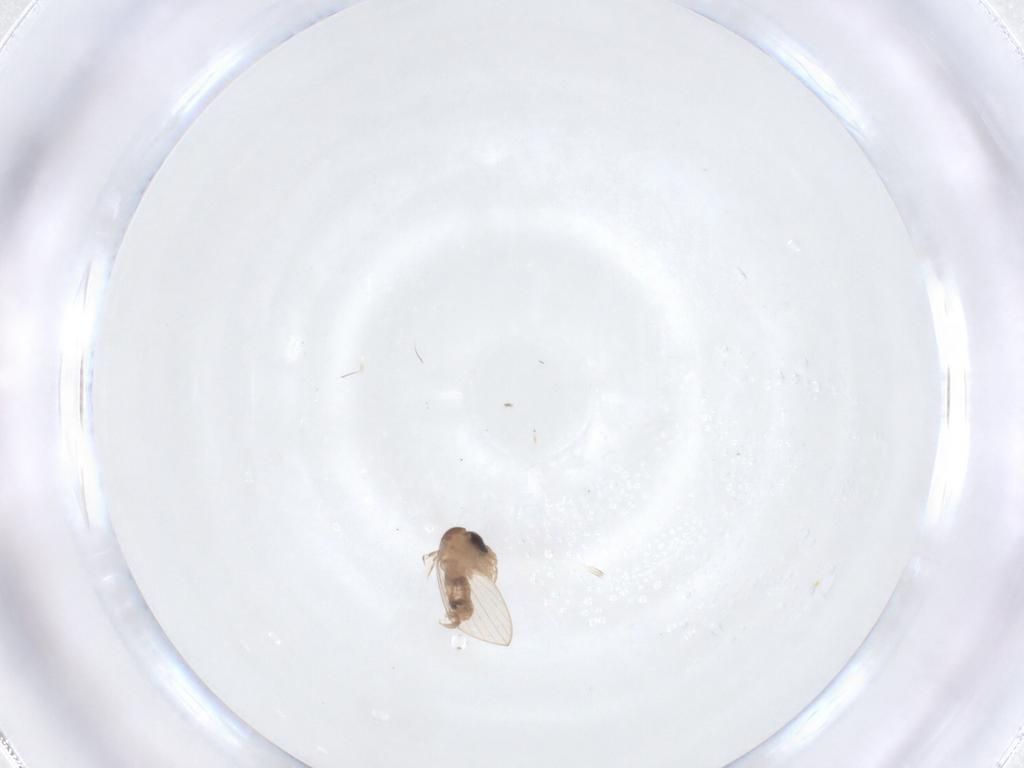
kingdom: Animalia
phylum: Arthropoda
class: Insecta
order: Diptera
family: Psychodidae
